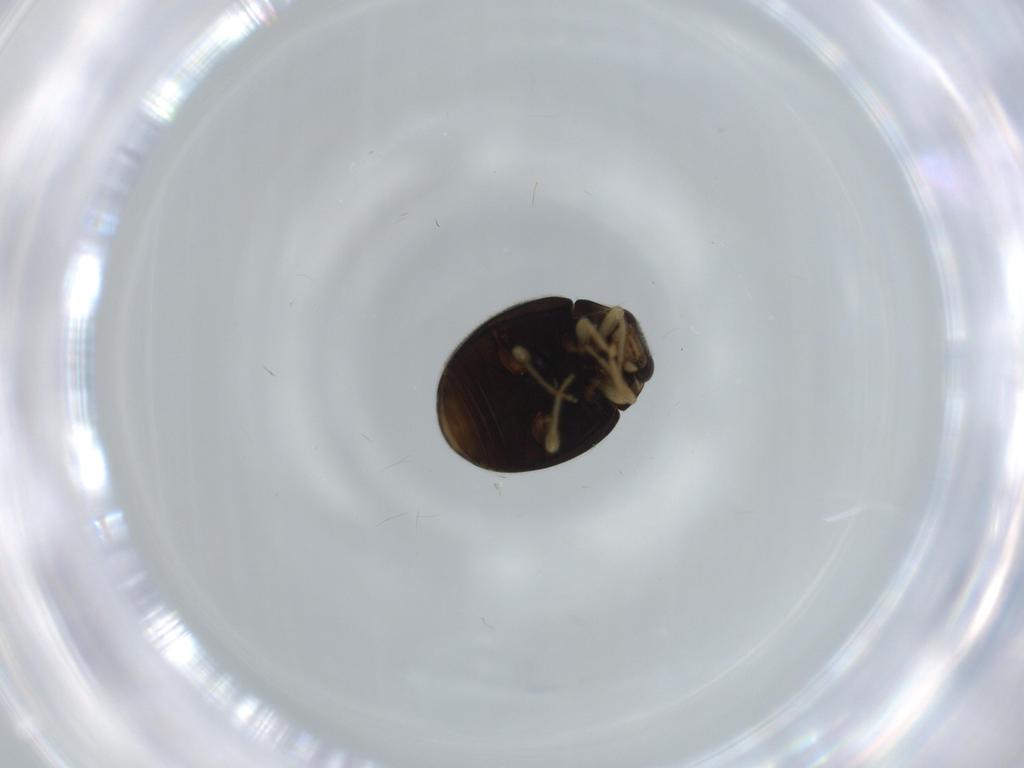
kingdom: Animalia
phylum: Arthropoda
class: Insecta
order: Coleoptera
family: Coccinellidae
